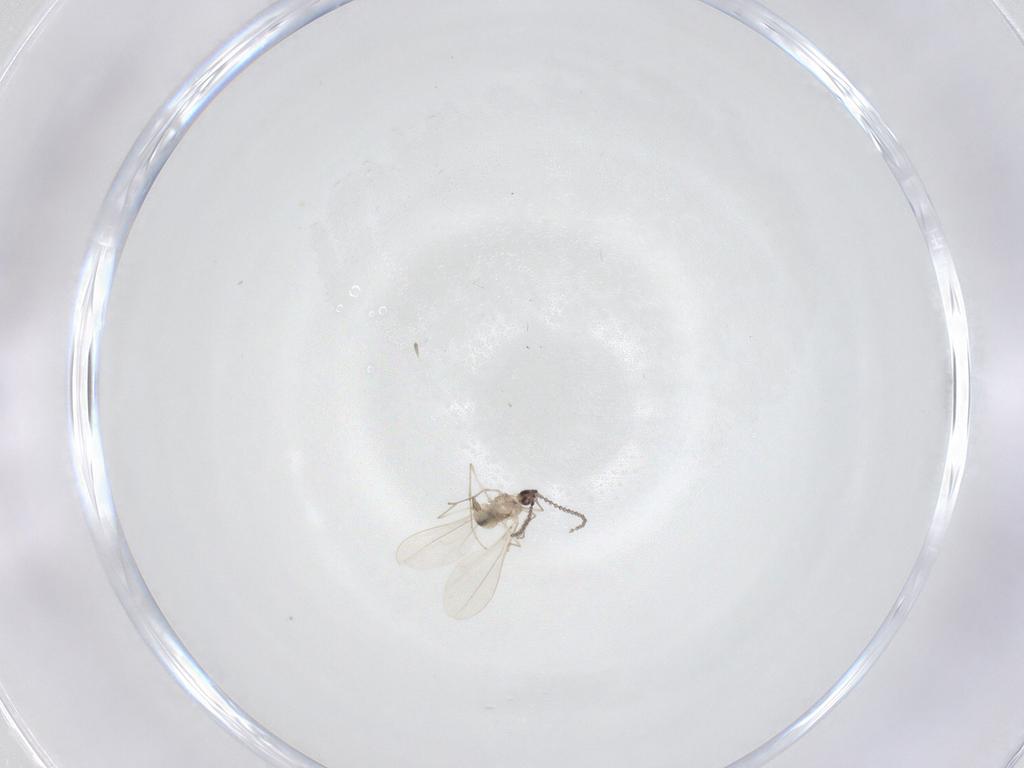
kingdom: Animalia
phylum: Arthropoda
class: Insecta
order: Diptera
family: Cecidomyiidae
